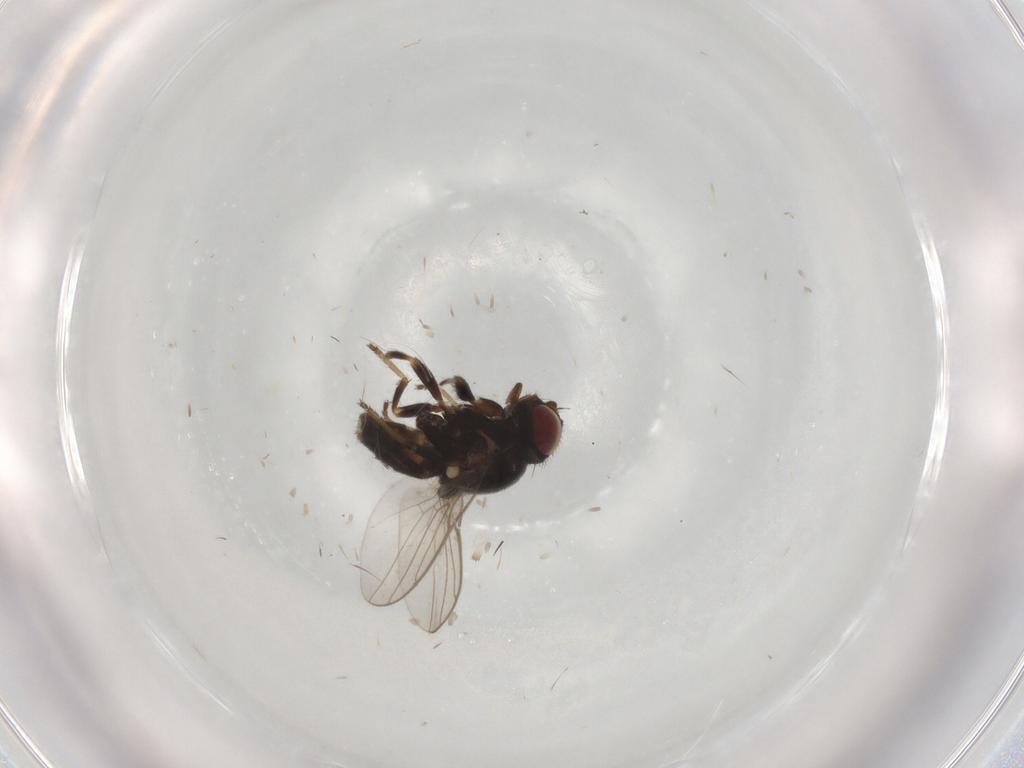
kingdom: Animalia
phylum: Arthropoda
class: Insecta
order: Diptera
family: Chloropidae
